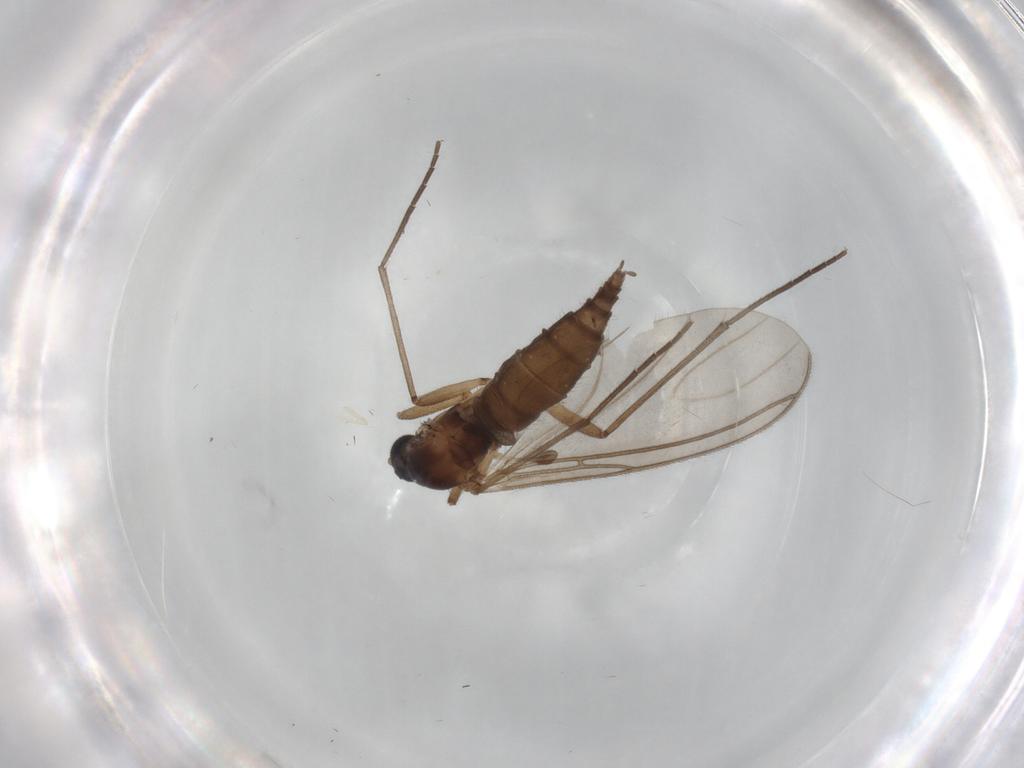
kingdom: Animalia
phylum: Arthropoda
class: Insecta
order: Diptera
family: Sciaridae
